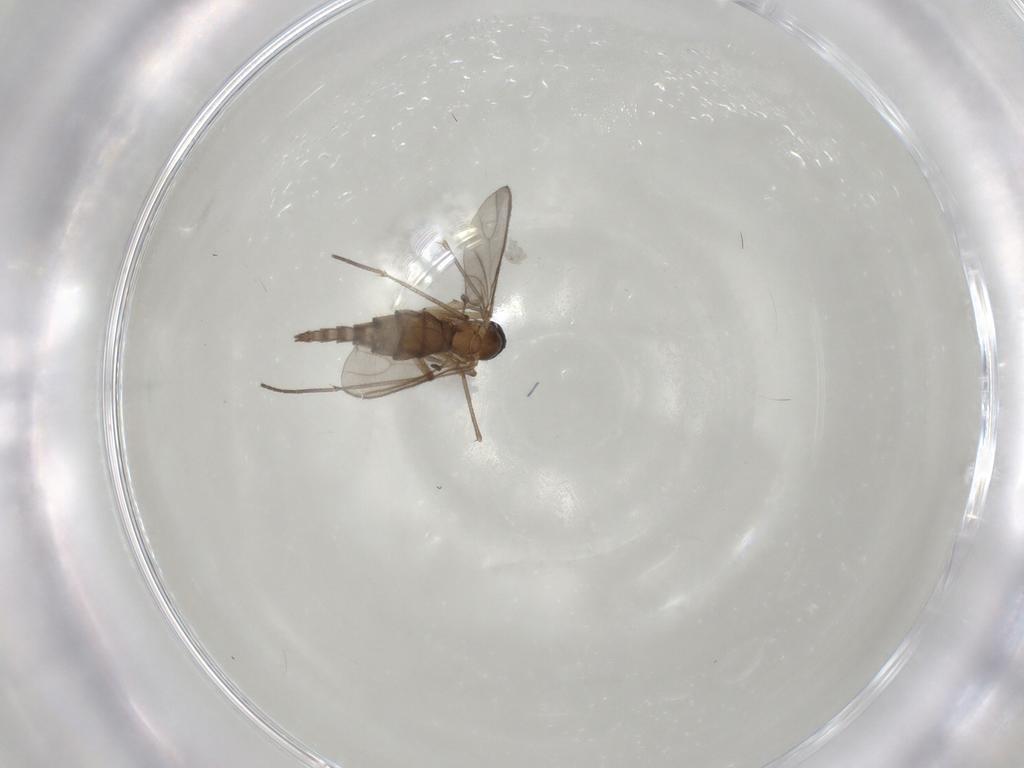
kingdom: Animalia
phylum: Arthropoda
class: Insecta
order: Diptera
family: Sciaridae
